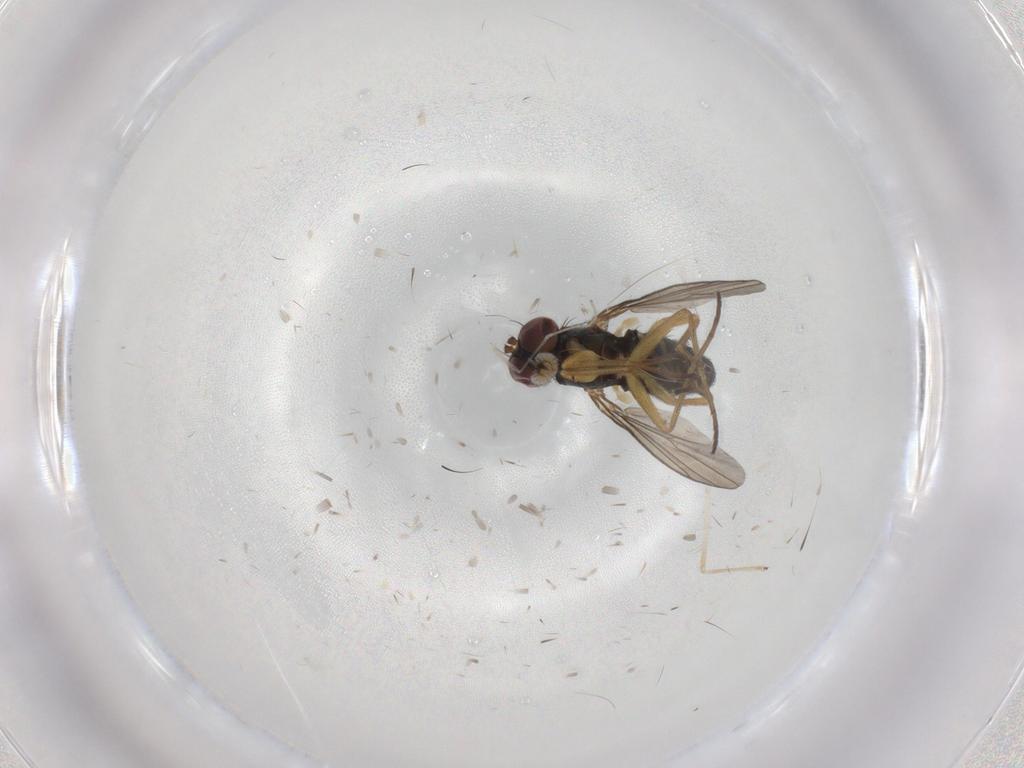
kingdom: Animalia
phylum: Arthropoda
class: Insecta
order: Diptera
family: Dolichopodidae
